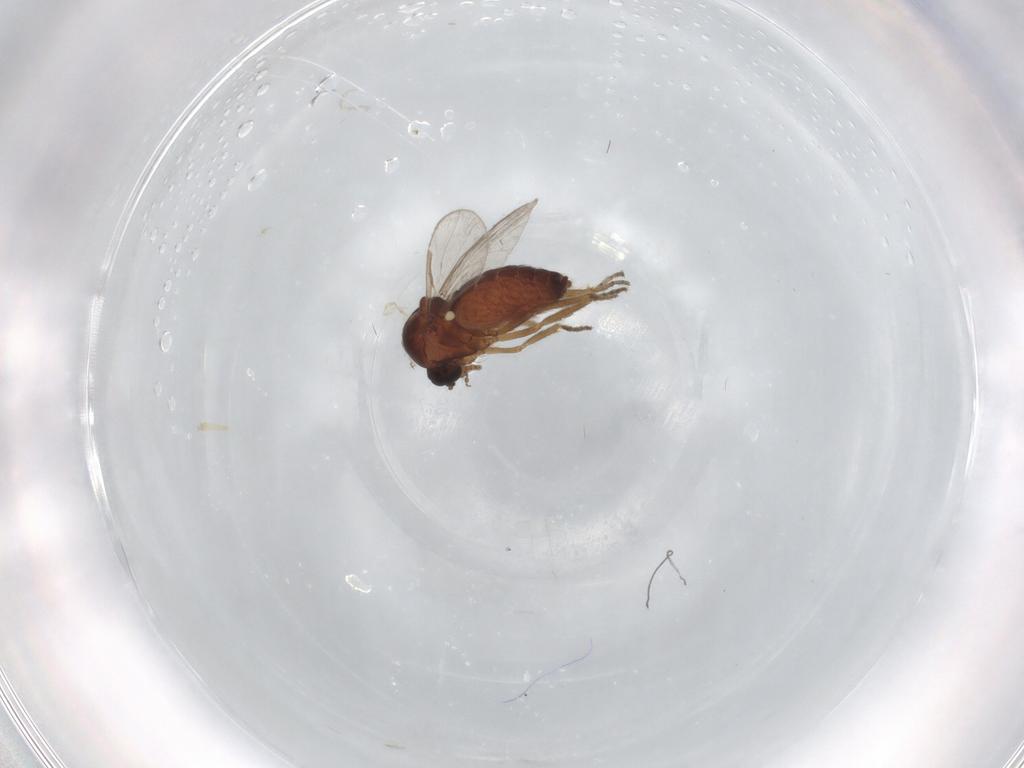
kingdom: Animalia
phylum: Arthropoda
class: Insecta
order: Diptera
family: Ceratopogonidae
